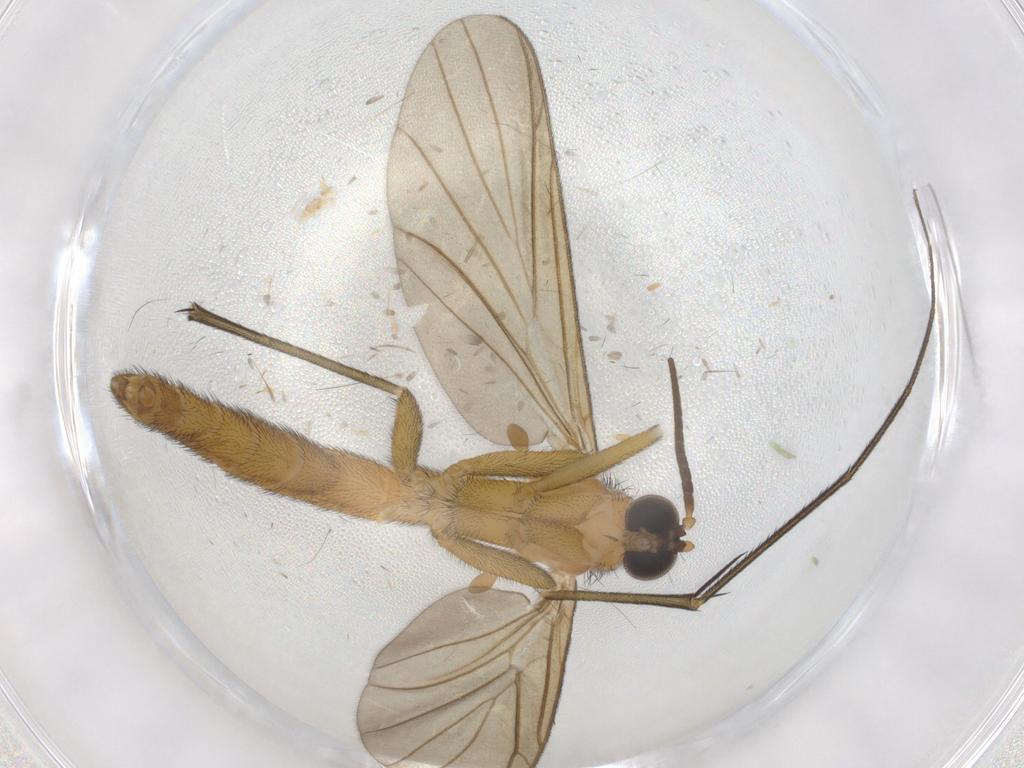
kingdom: Animalia
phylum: Arthropoda
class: Insecta
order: Diptera
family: Cecidomyiidae
